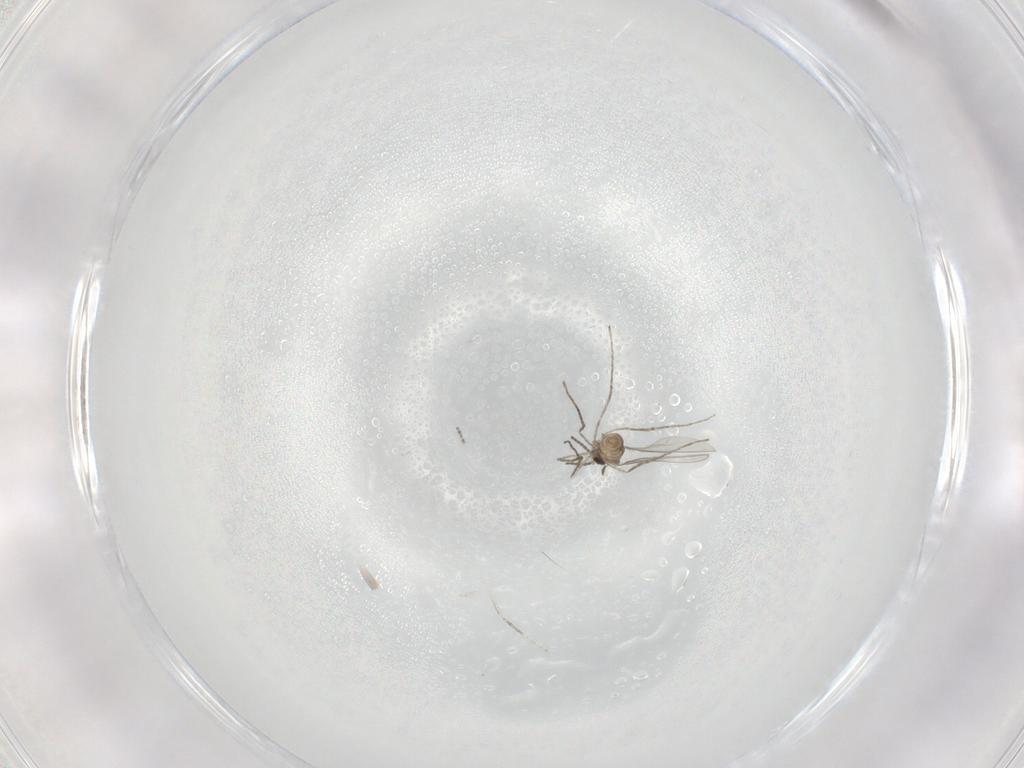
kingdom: Animalia
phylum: Arthropoda
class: Insecta
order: Diptera
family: Cecidomyiidae
